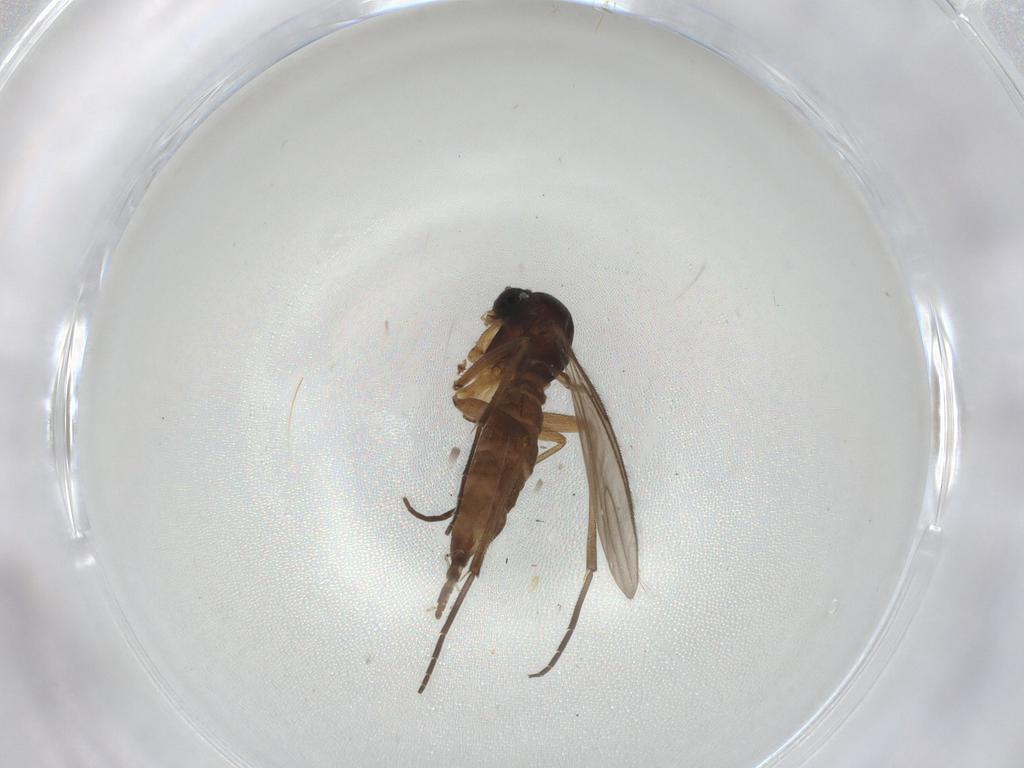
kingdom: Animalia
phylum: Arthropoda
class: Insecta
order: Diptera
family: Sciaridae
